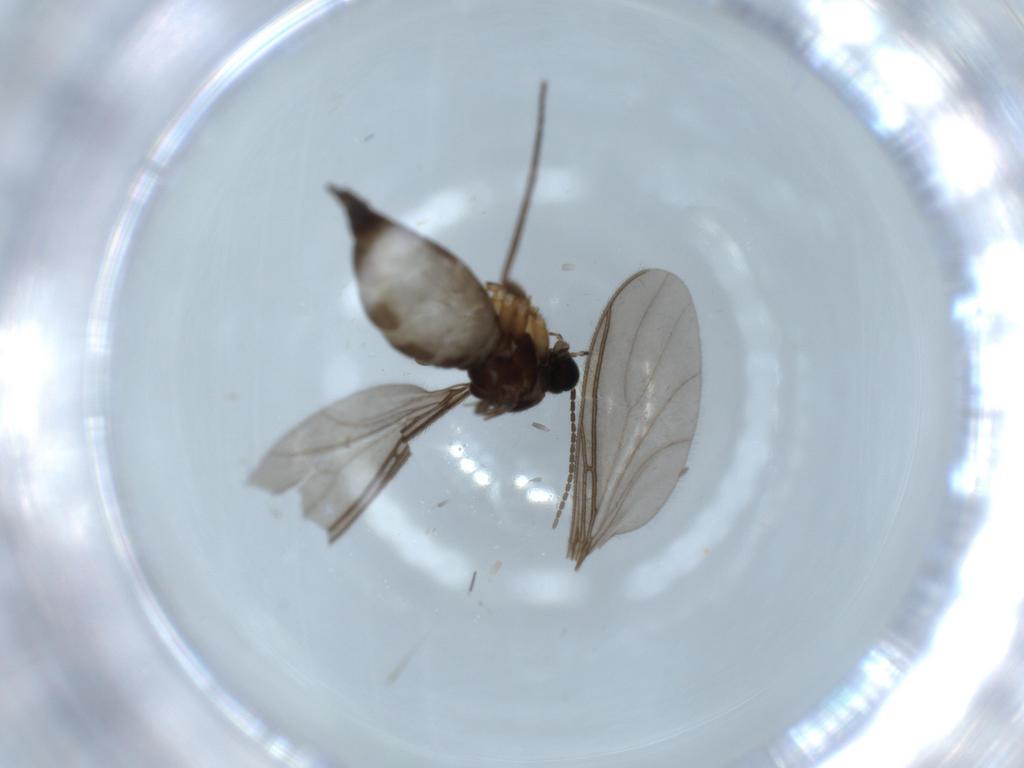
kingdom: Animalia
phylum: Arthropoda
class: Insecta
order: Diptera
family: Sciaridae
